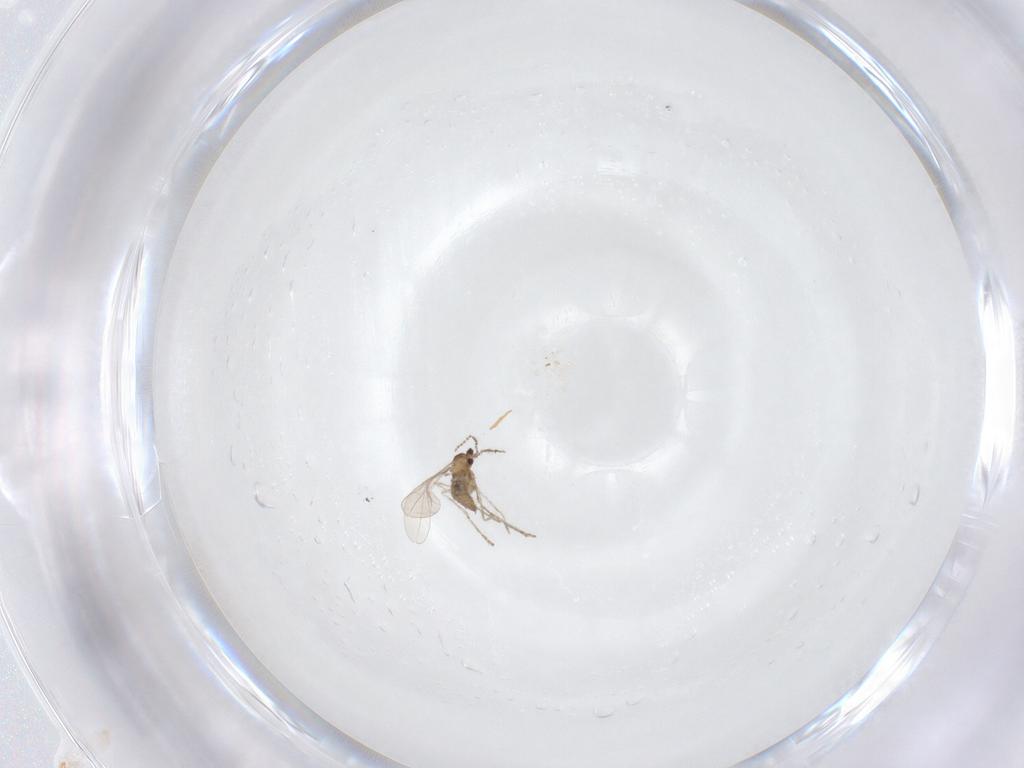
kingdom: Animalia
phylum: Arthropoda
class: Insecta
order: Diptera
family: Cecidomyiidae
